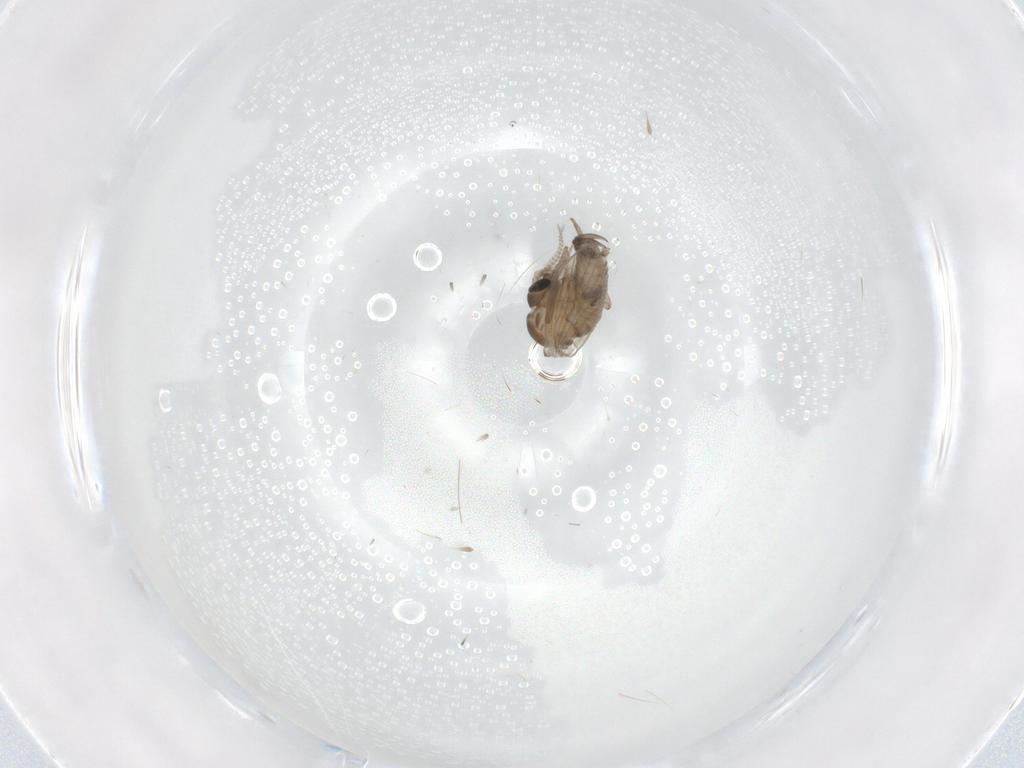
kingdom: Animalia
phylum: Arthropoda
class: Insecta
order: Diptera
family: Psychodidae
